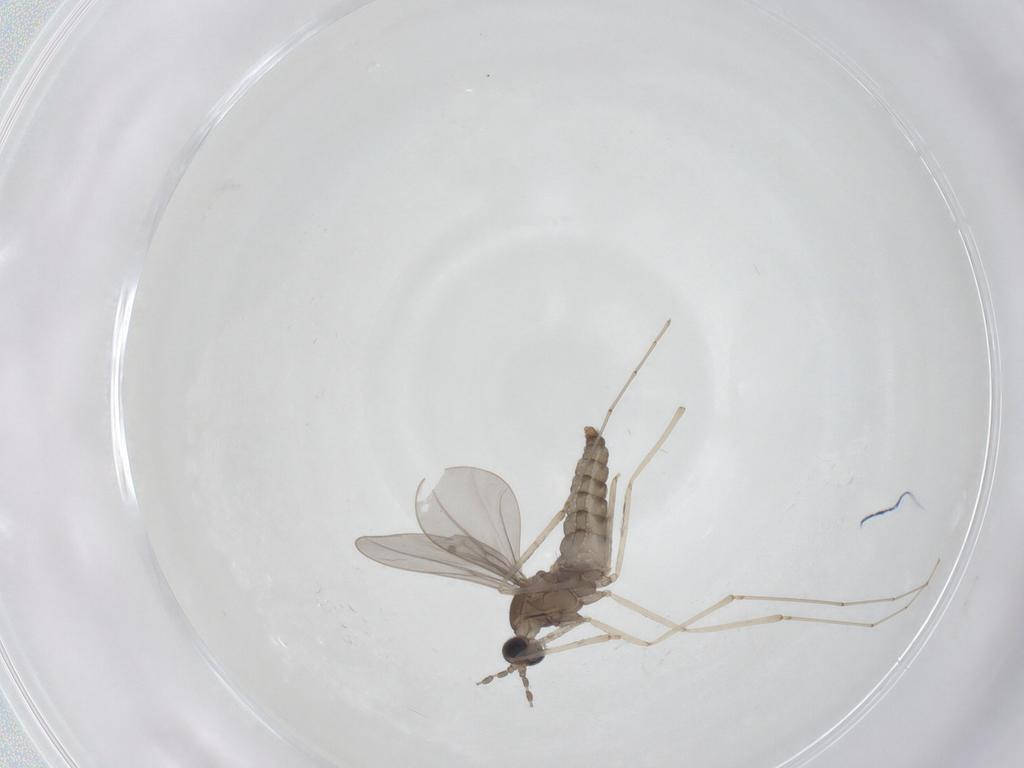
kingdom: Animalia
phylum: Arthropoda
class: Insecta
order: Diptera
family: Cecidomyiidae
